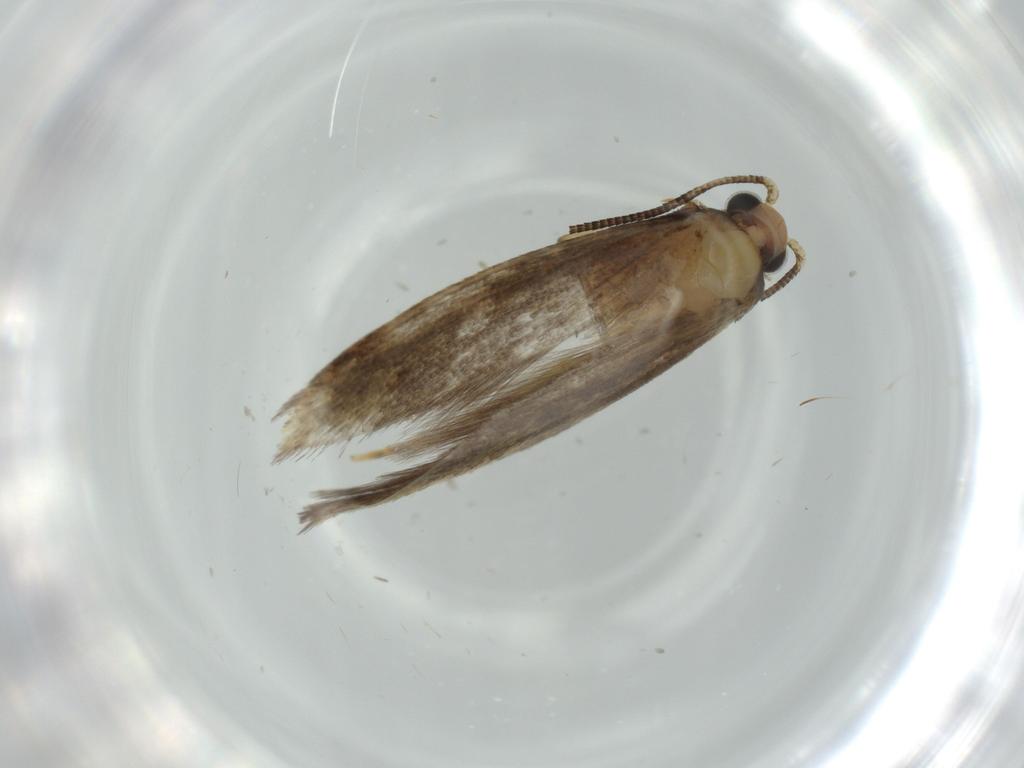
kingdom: Animalia
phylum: Arthropoda
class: Insecta
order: Lepidoptera
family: Tineidae
